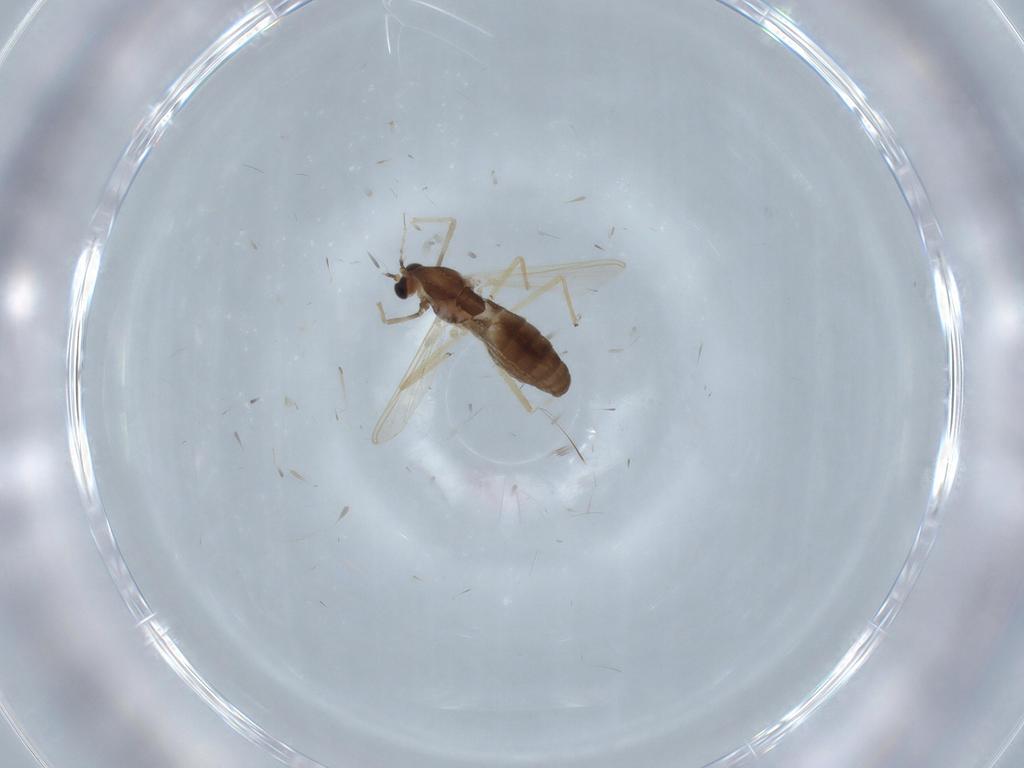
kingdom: Animalia
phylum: Arthropoda
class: Insecta
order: Diptera
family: Chironomidae
